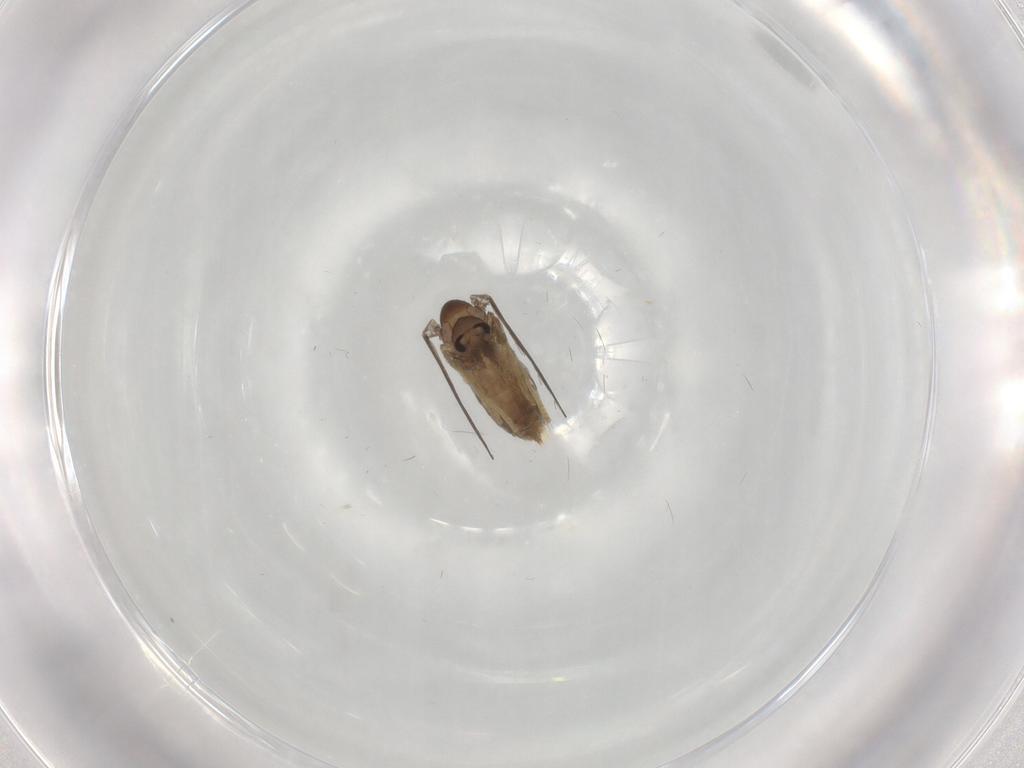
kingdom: Animalia
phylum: Arthropoda
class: Insecta
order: Diptera
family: Psychodidae
